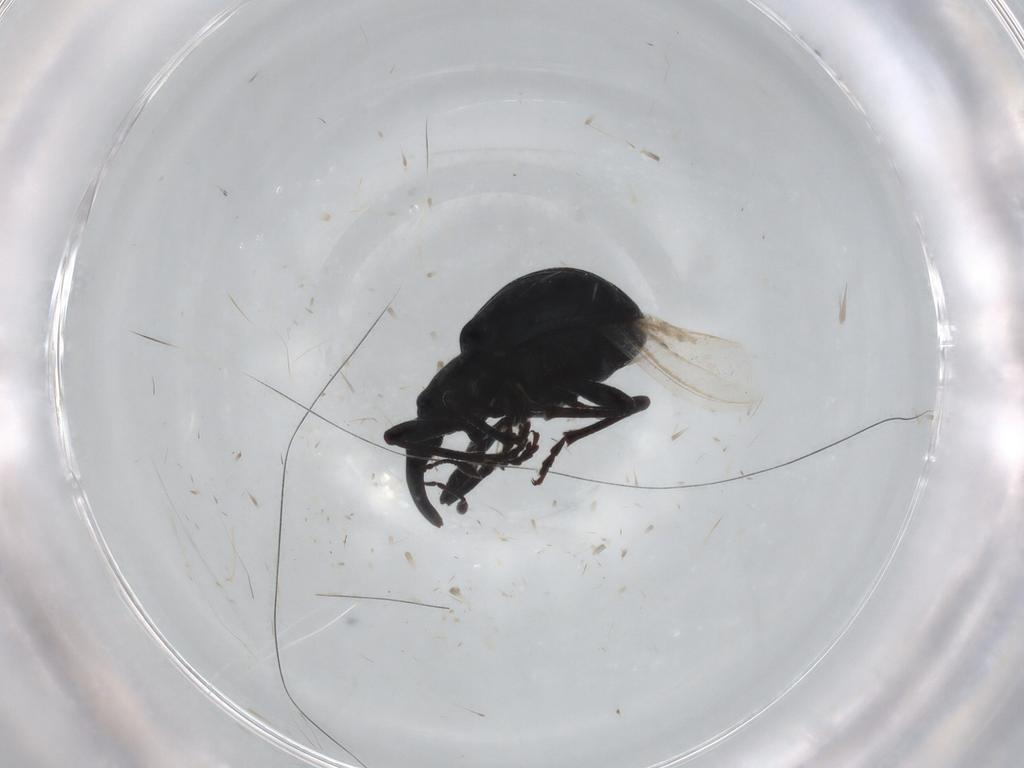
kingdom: Animalia
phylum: Arthropoda
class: Insecta
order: Coleoptera
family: Apionidae
